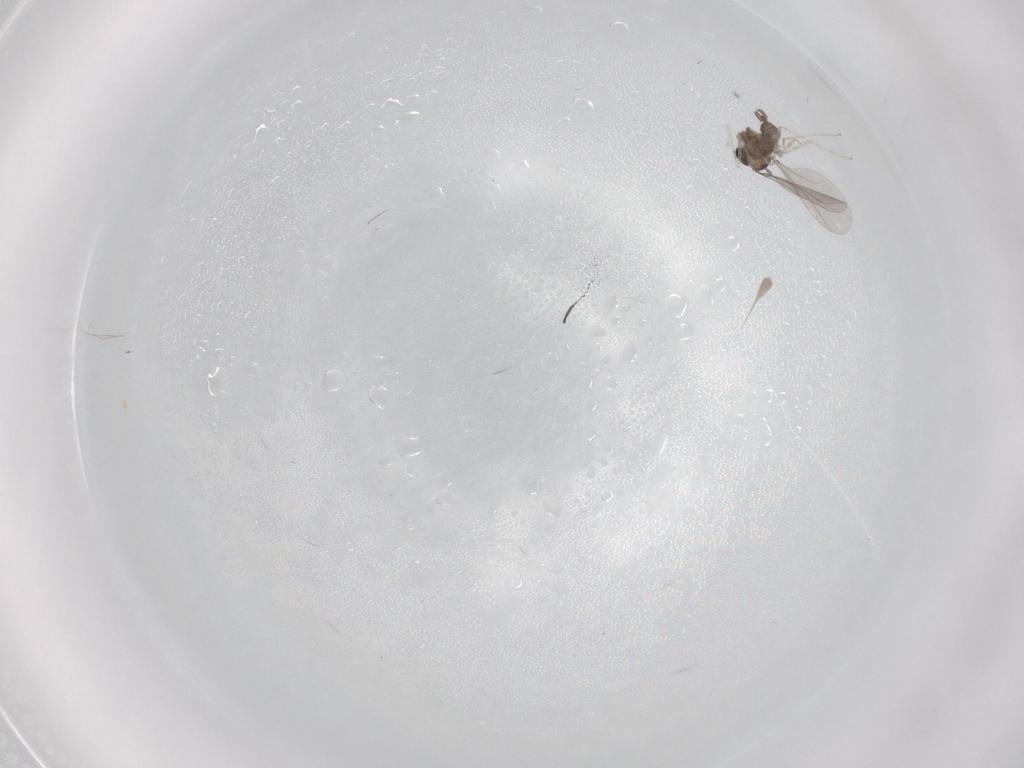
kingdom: Animalia
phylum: Arthropoda
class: Insecta
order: Diptera
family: Cecidomyiidae
